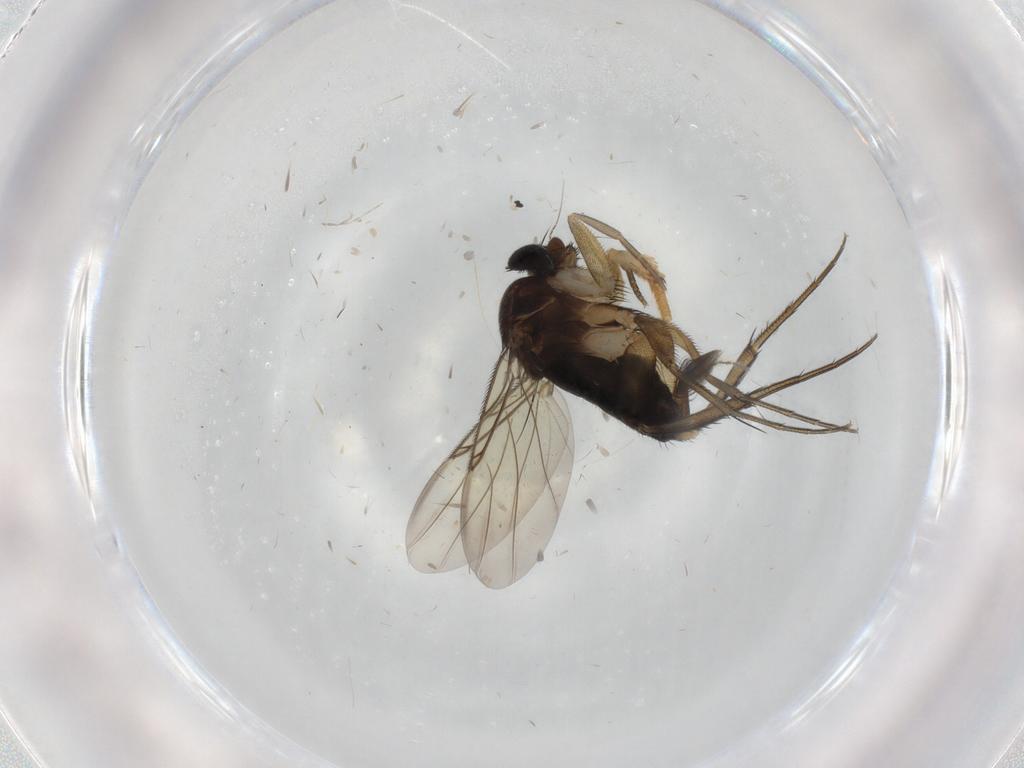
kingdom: Animalia
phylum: Arthropoda
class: Insecta
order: Diptera
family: Phoridae
